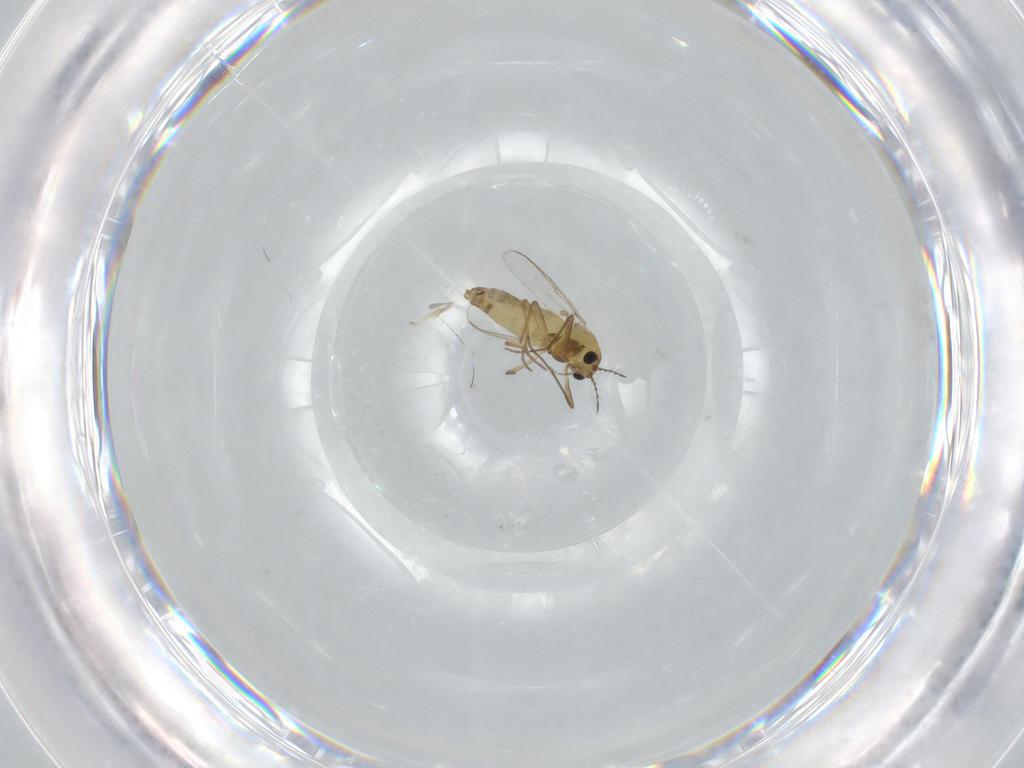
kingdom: Animalia
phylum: Arthropoda
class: Insecta
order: Diptera
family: Chironomidae
